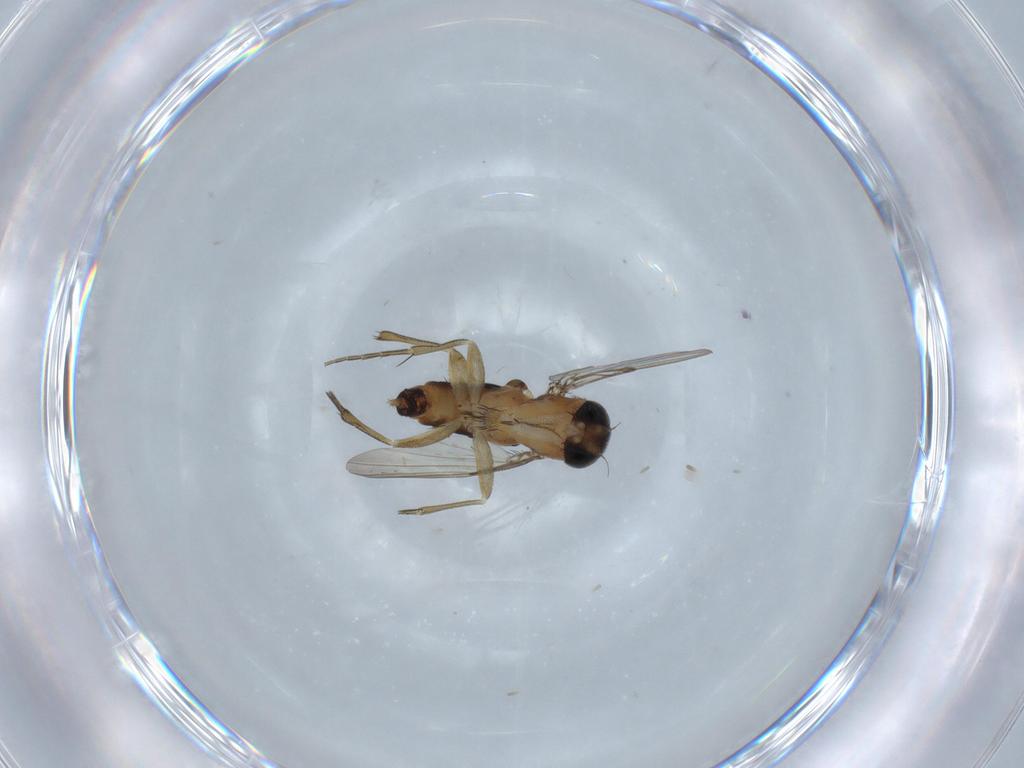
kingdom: Animalia
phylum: Arthropoda
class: Insecta
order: Diptera
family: Phoridae
